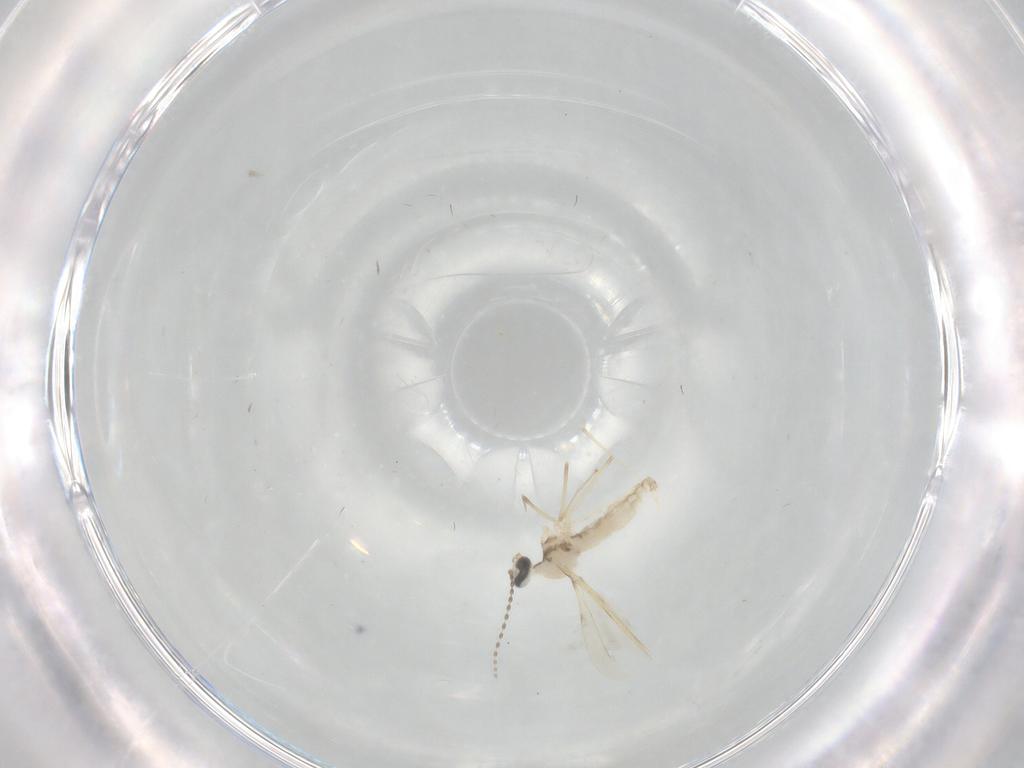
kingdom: Animalia
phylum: Arthropoda
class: Insecta
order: Diptera
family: Cecidomyiidae
